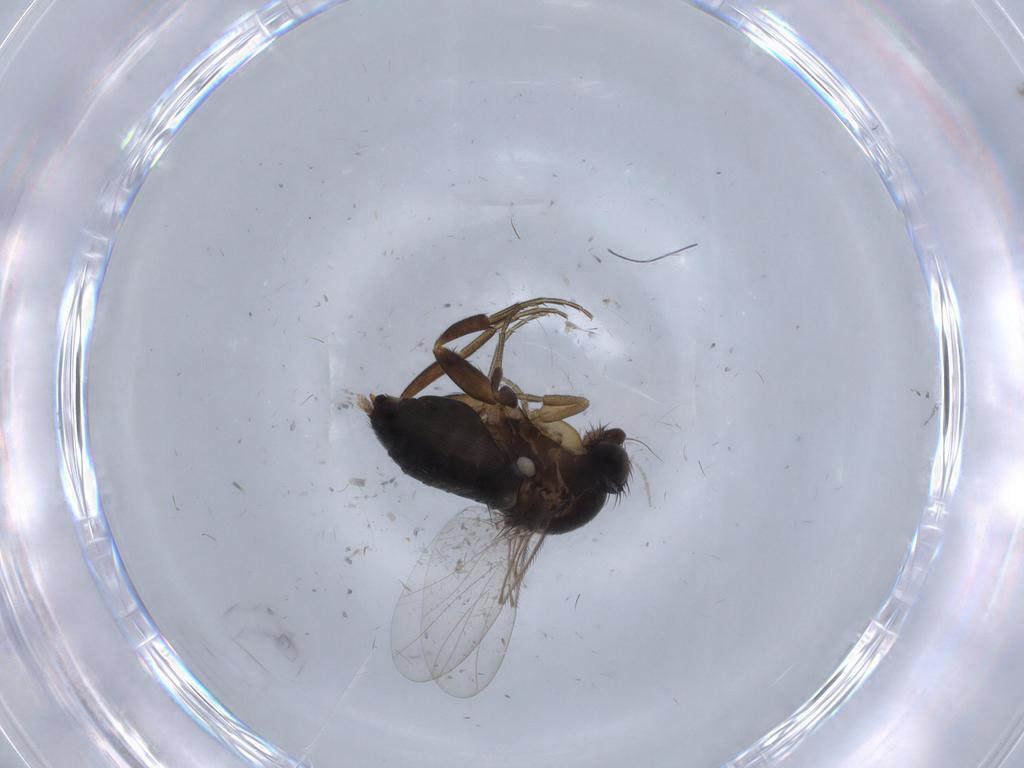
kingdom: Animalia
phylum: Arthropoda
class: Insecta
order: Diptera
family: Phoridae
